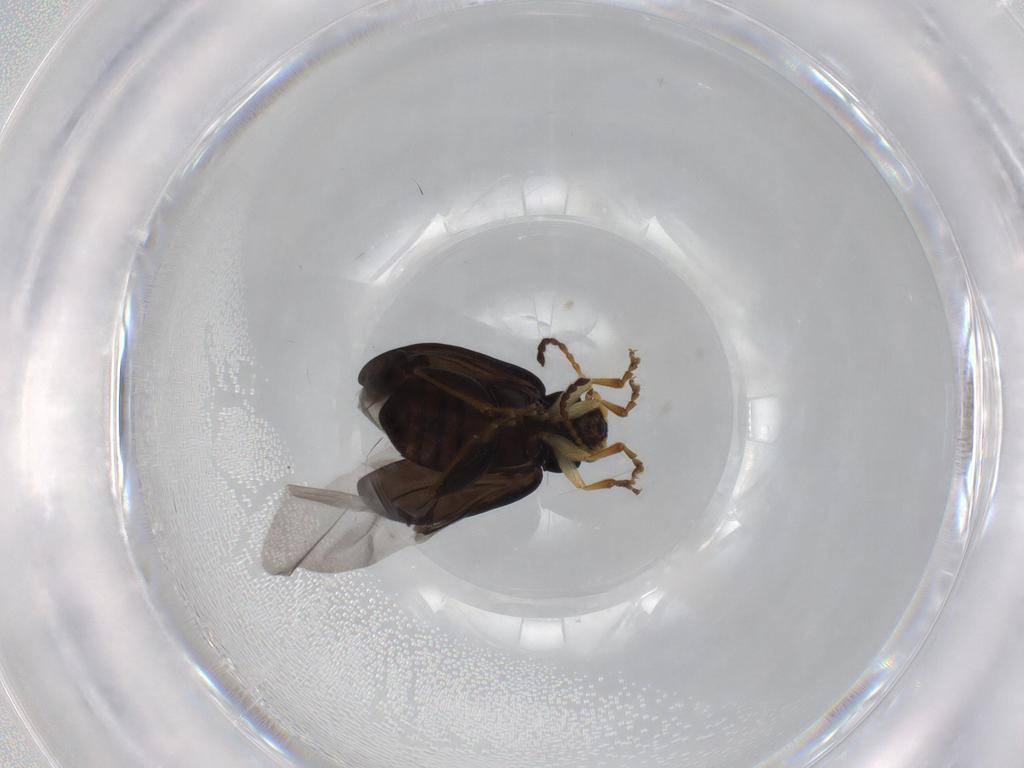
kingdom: Animalia
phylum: Arthropoda
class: Insecta
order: Coleoptera
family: Chrysomelidae
